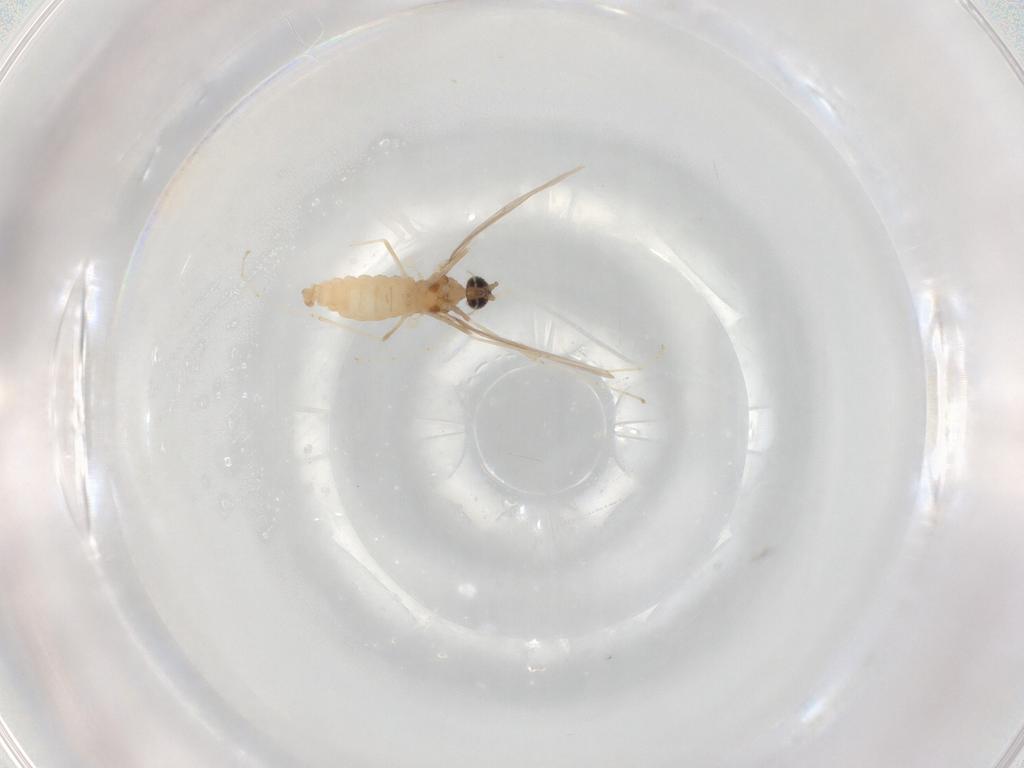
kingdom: Animalia
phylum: Arthropoda
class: Insecta
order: Diptera
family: Cecidomyiidae
